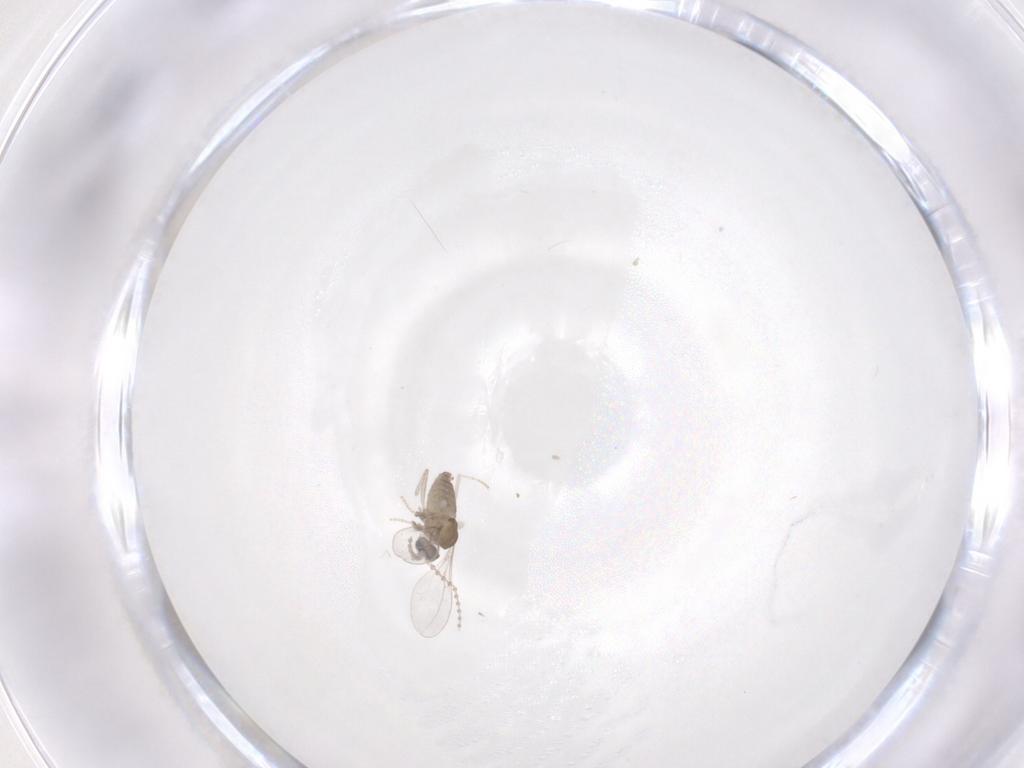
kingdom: Animalia
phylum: Arthropoda
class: Insecta
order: Diptera
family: Cecidomyiidae
